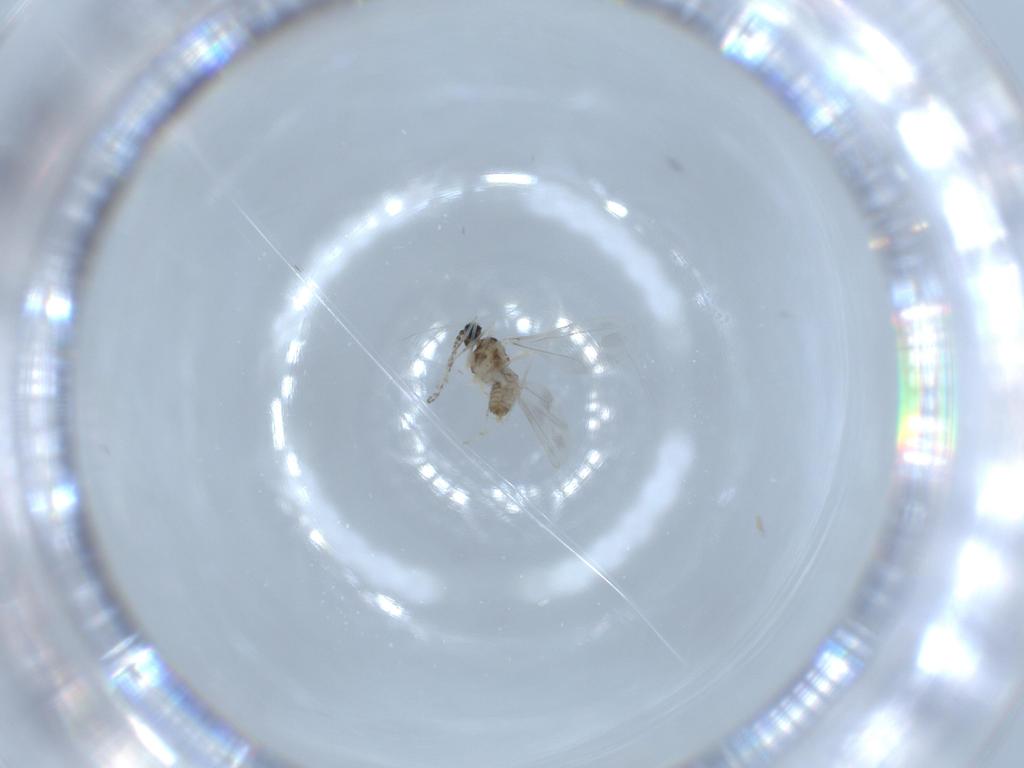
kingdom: Animalia
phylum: Arthropoda
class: Insecta
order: Diptera
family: Cecidomyiidae
